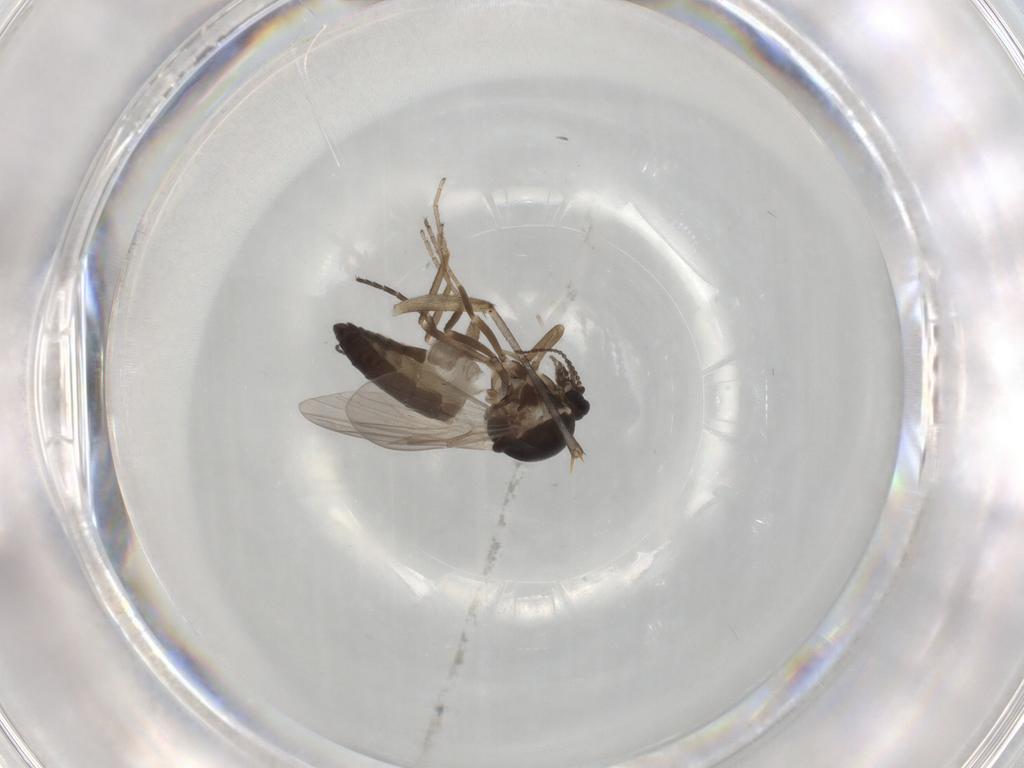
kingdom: Animalia
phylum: Arthropoda
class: Insecta
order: Diptera
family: Ceratopogonidae
